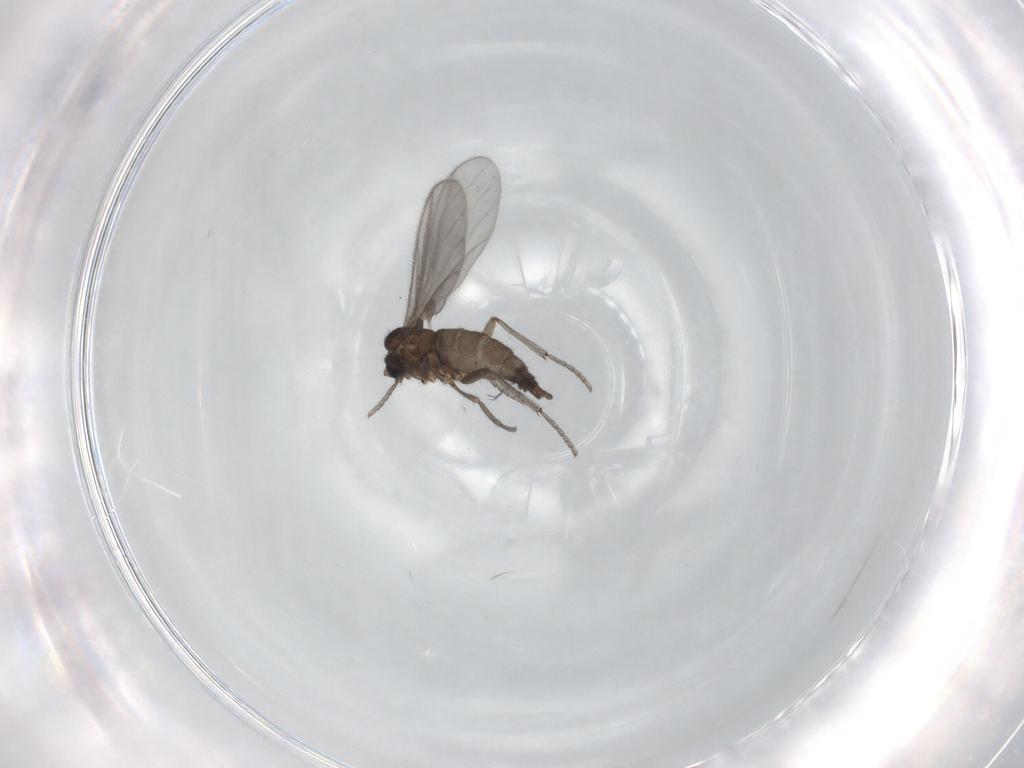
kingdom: Animalia
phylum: Arthropoda
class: Insecta
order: Diptera
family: Sciaridae
